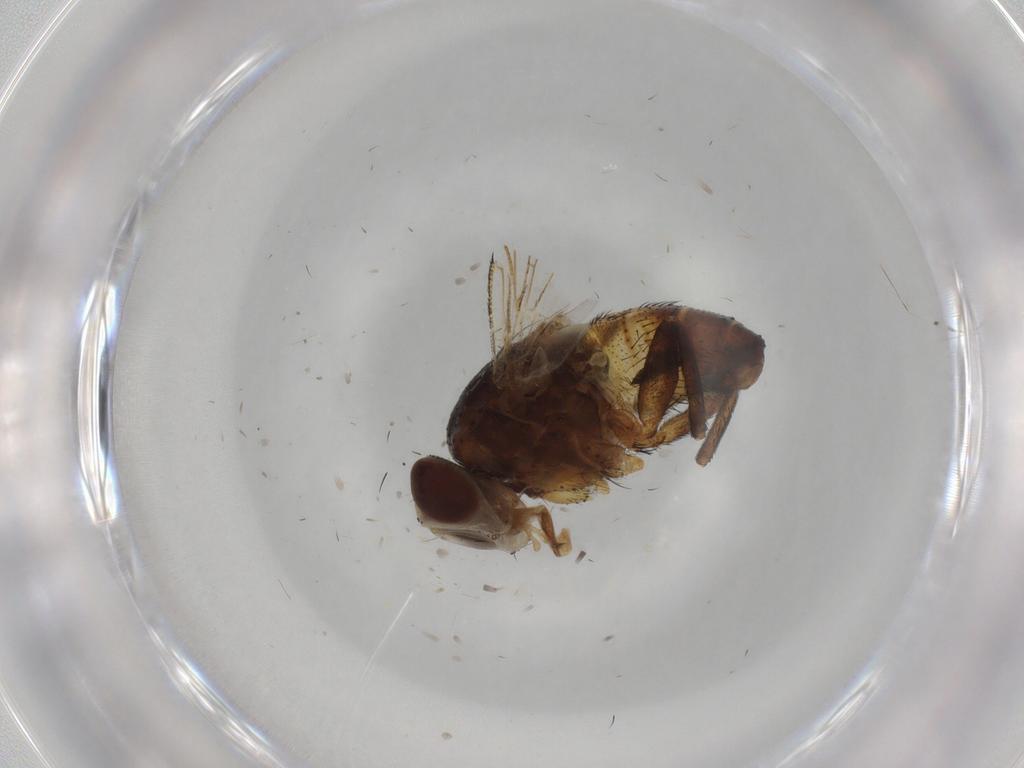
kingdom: Animalia
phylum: Arthropoda
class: Insecta
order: Diptera
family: Glossinidae
